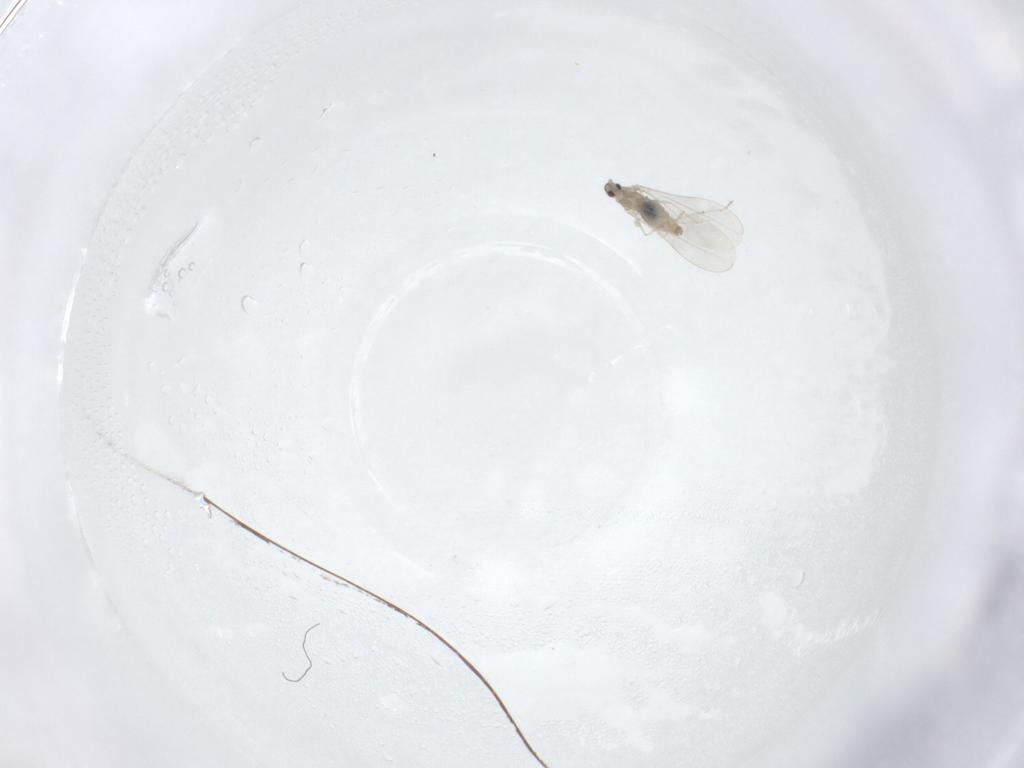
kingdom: Animalia
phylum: Arthropoda
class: Insecta
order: Diptera
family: Cecidomyiidae
